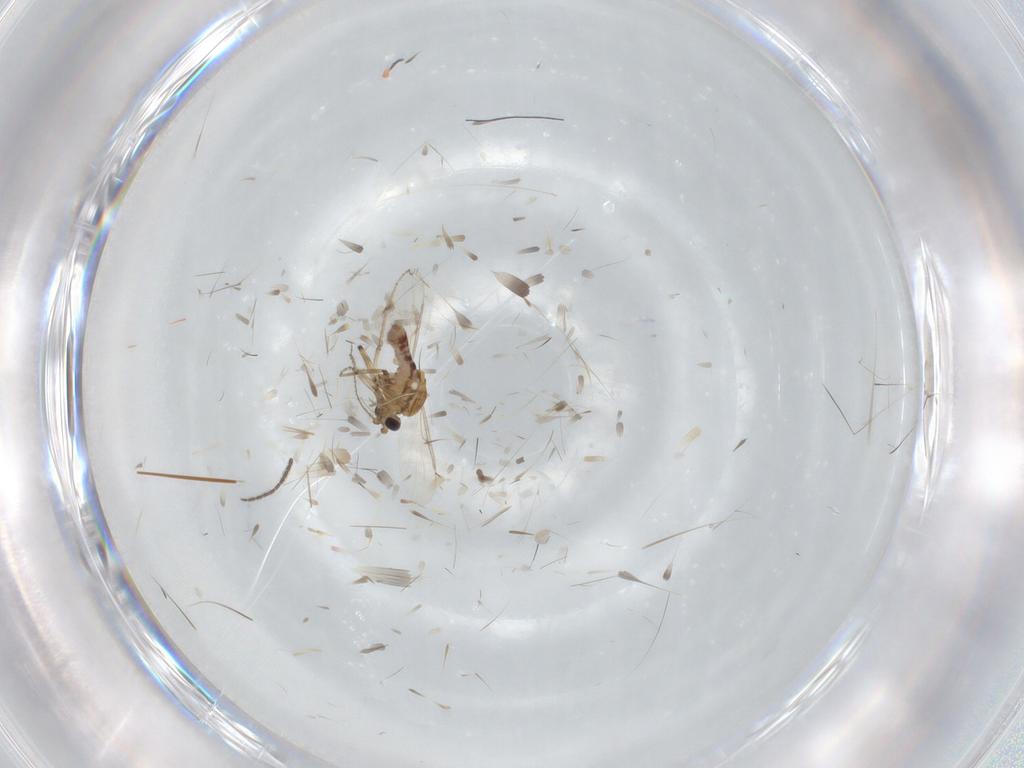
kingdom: Animalia
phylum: Arthropoda
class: Insecta
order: Diptera
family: Ceratopogonidae
